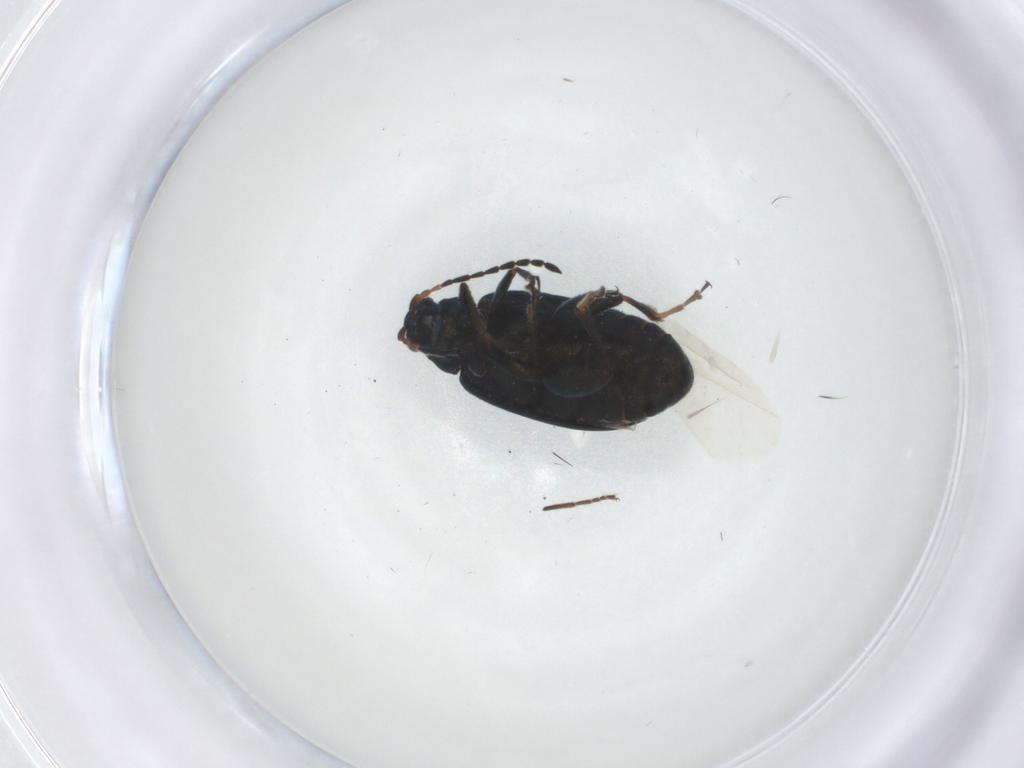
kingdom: Animalia
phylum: Arthropoda
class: Insecta
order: Coleoptera
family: Chrysomelidae
